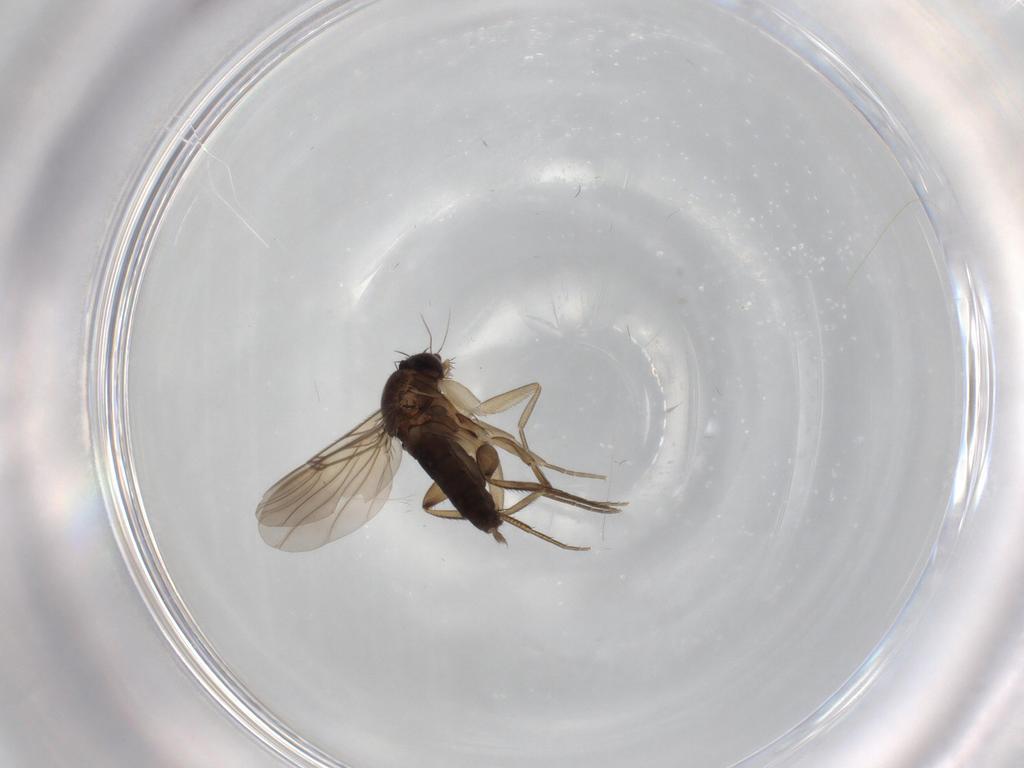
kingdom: Animalia
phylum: Arthropoda
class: Insecta
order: Diptera
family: Phoridae
